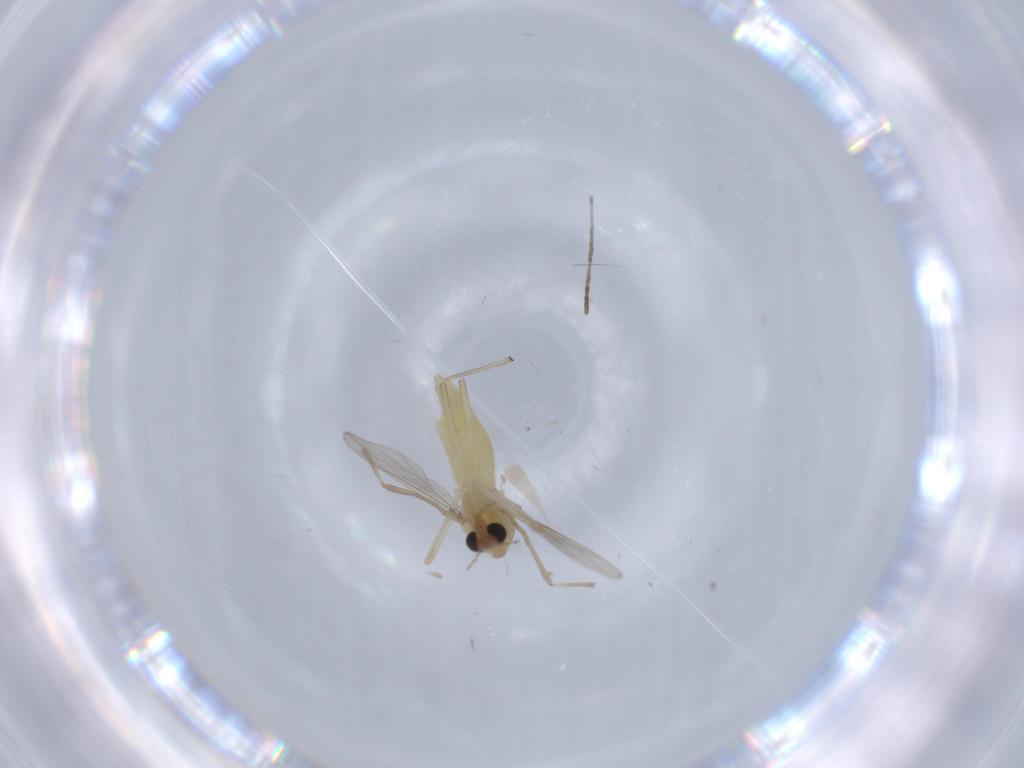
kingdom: Animalia
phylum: Arthropoda
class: Insecta
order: Diptera
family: Chironomidae
